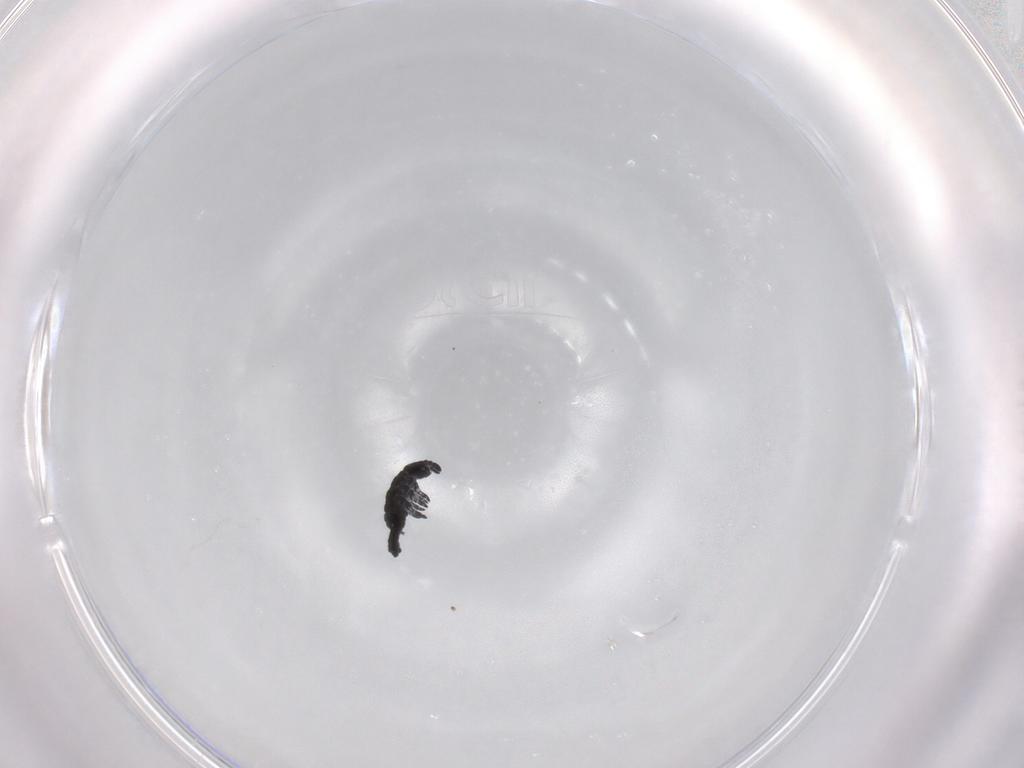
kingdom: Animalia
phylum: Arthropoda
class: Collembola
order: Poduromorpha
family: Hypogastruridae
